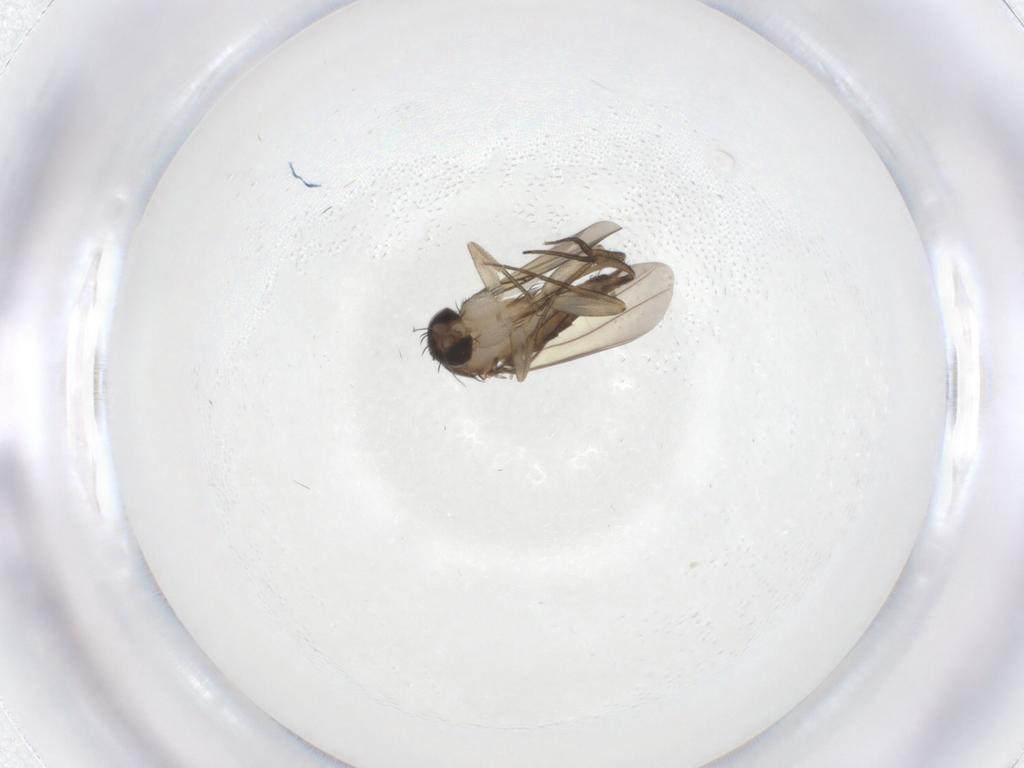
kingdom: Animalia
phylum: Arthropoda
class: Insecta
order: Diptera
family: Phoridae
